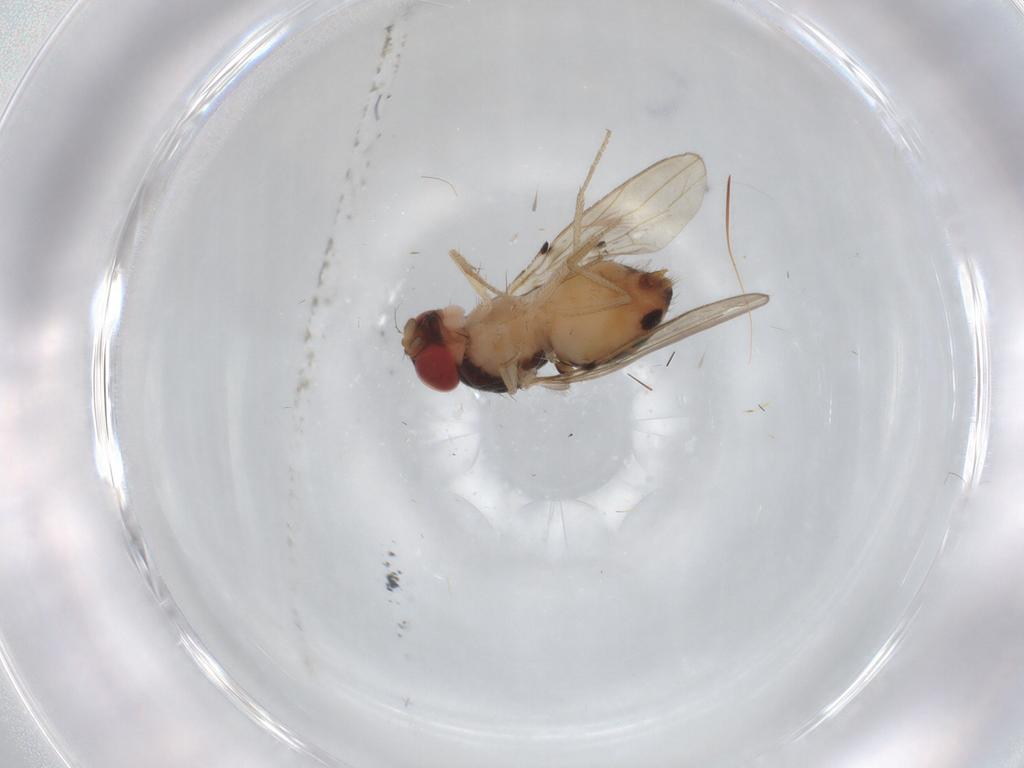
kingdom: Animalia
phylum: Arthropoda
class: Insecta
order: Diptera
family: Drosophilidae
